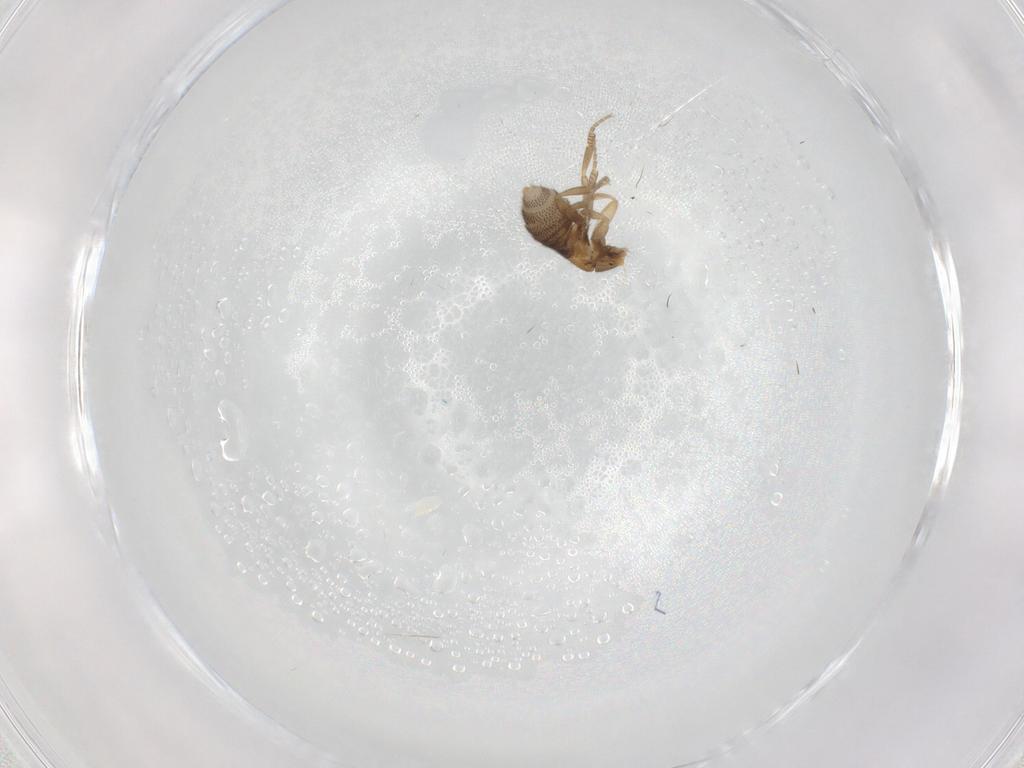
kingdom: Animalia
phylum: Arthropoda
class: Insecta
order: Diptera
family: Phoridae
